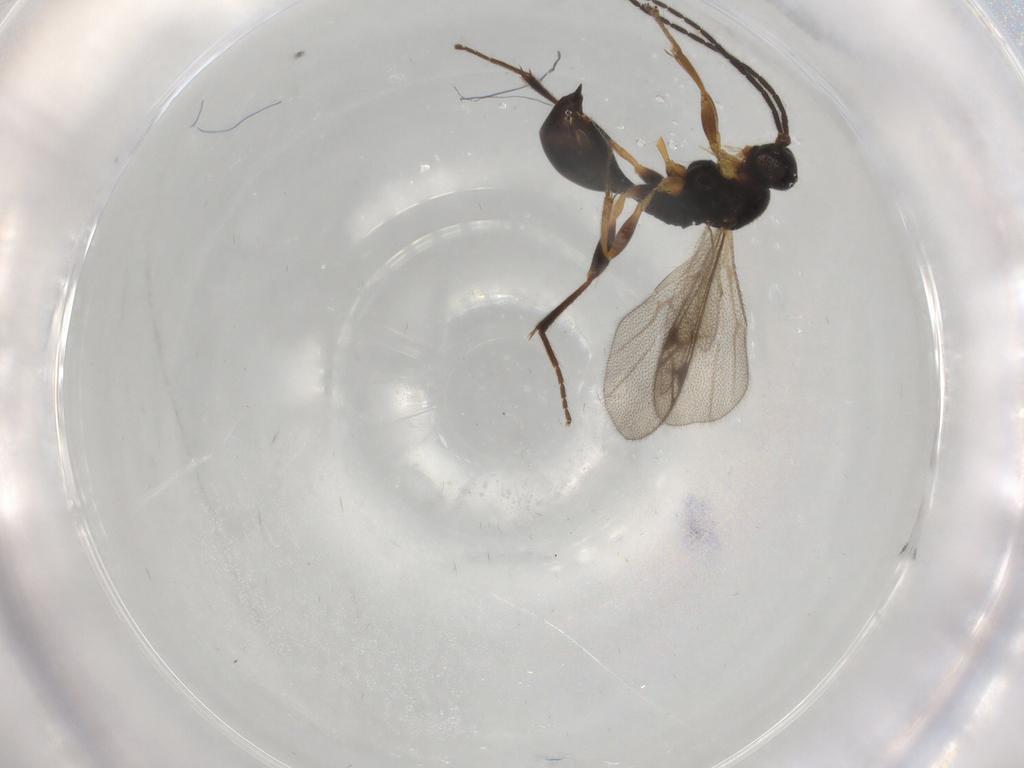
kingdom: Animalia
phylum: Arthropoda
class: Insecta
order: Hymenoptera
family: Proctotrupidae
